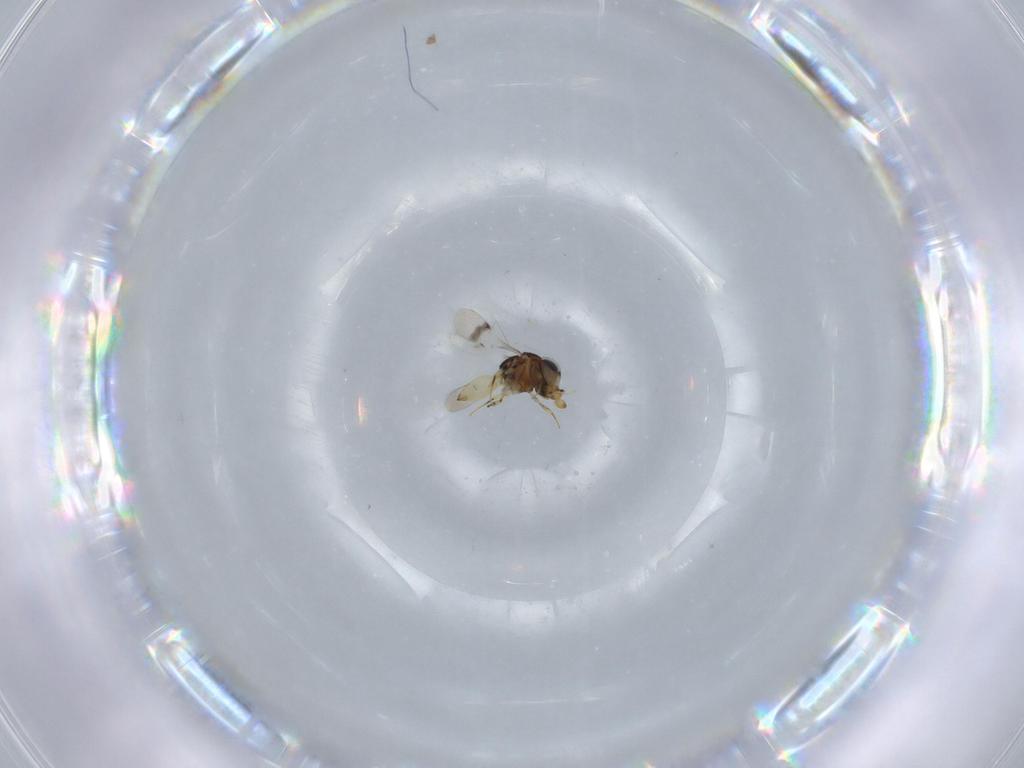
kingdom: Animalia
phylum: Arthropoda
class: Insecta
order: Hymenoptera
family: Scelionidae
